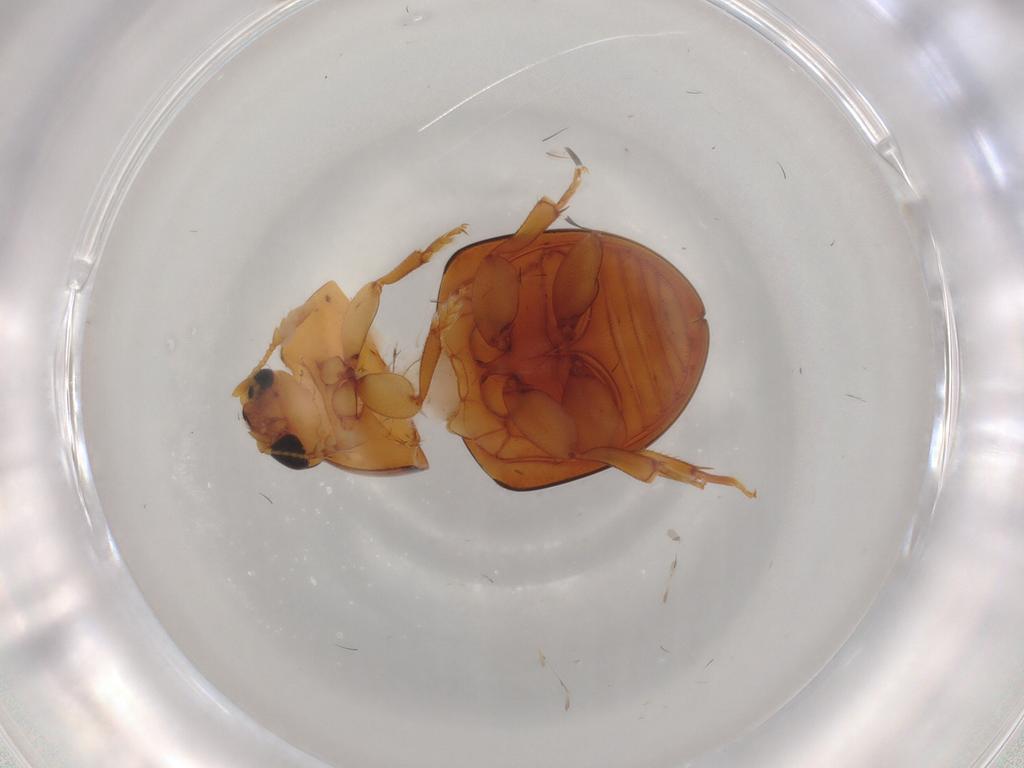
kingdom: Animalia
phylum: Arthropoda
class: Insecta
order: Coleoptera
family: Phalacridae
